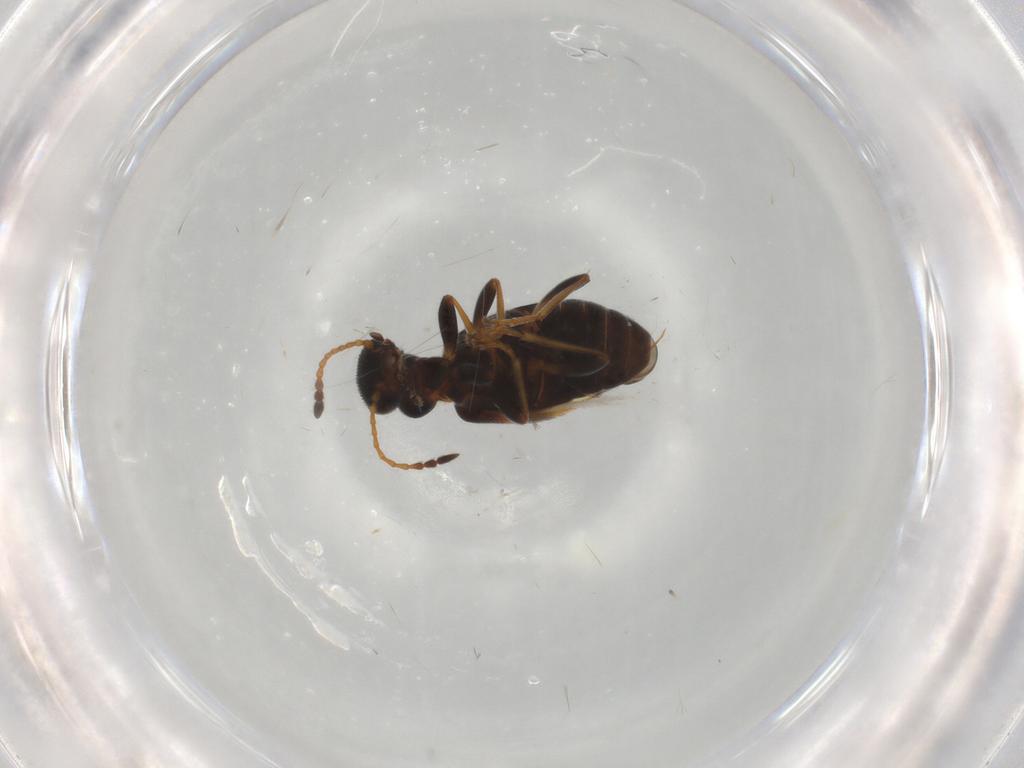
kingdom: Animalia
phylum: Arthropoda
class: Insecta
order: Coleoptera
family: Anthicidae
